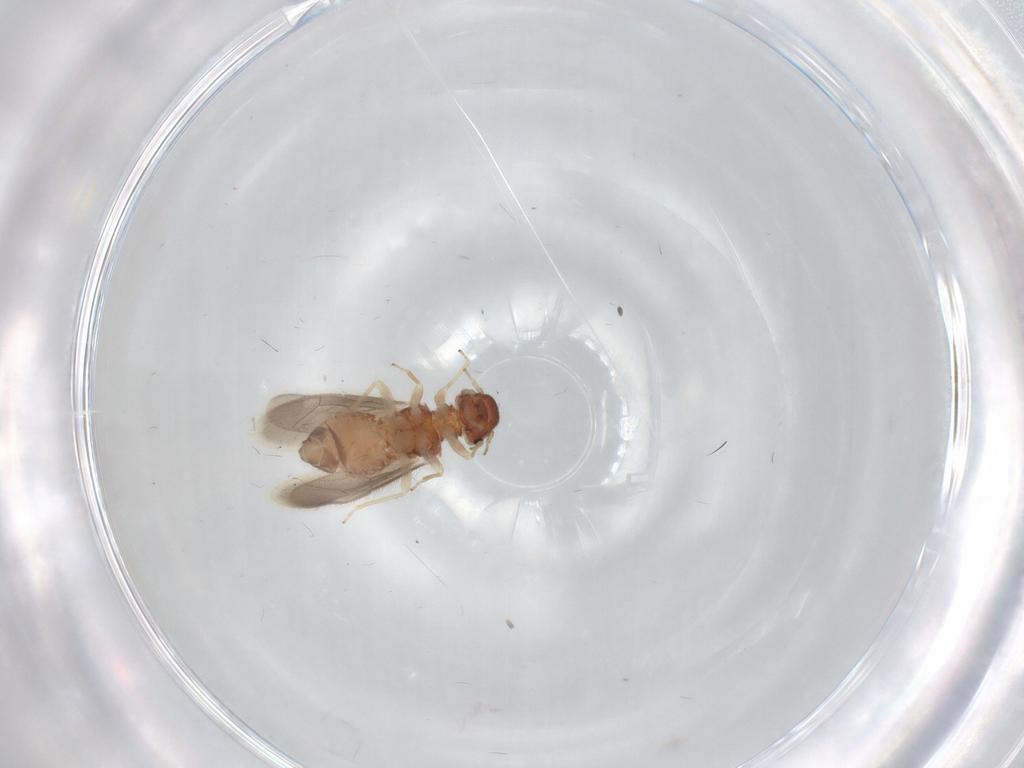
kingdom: Animalia
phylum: Arthropoda
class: Insecta
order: Psocodea
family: Archipsocidae
